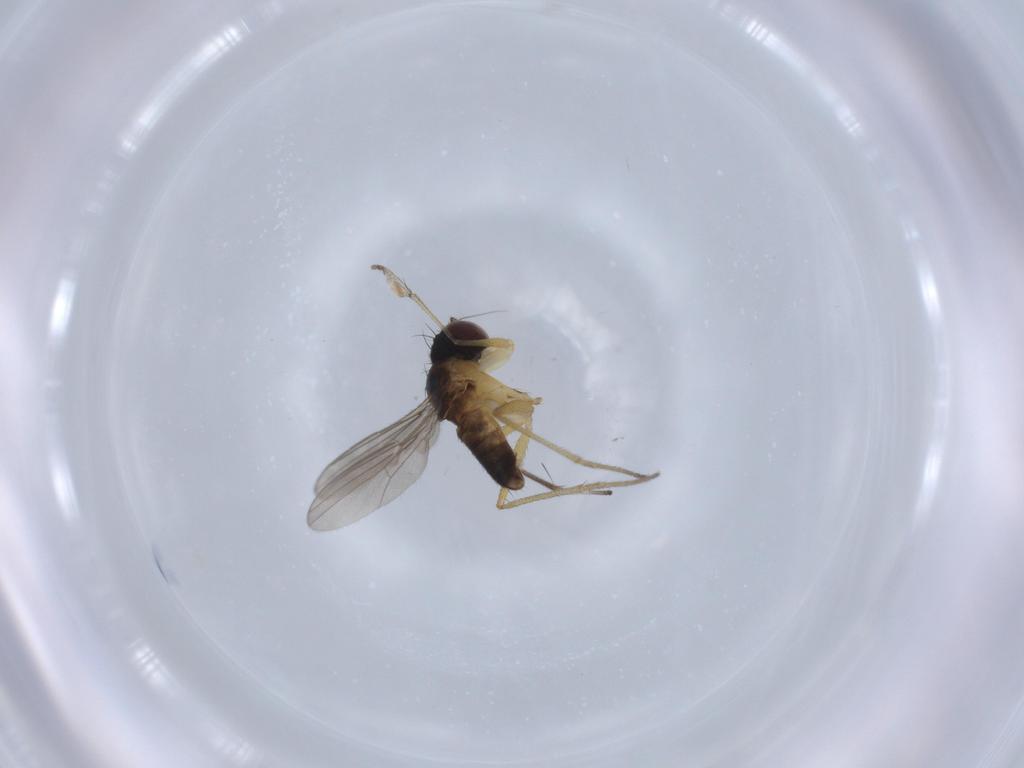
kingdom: Animalia
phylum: Arthropoda
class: Insecta
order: Diptera
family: Dolichopodidae
